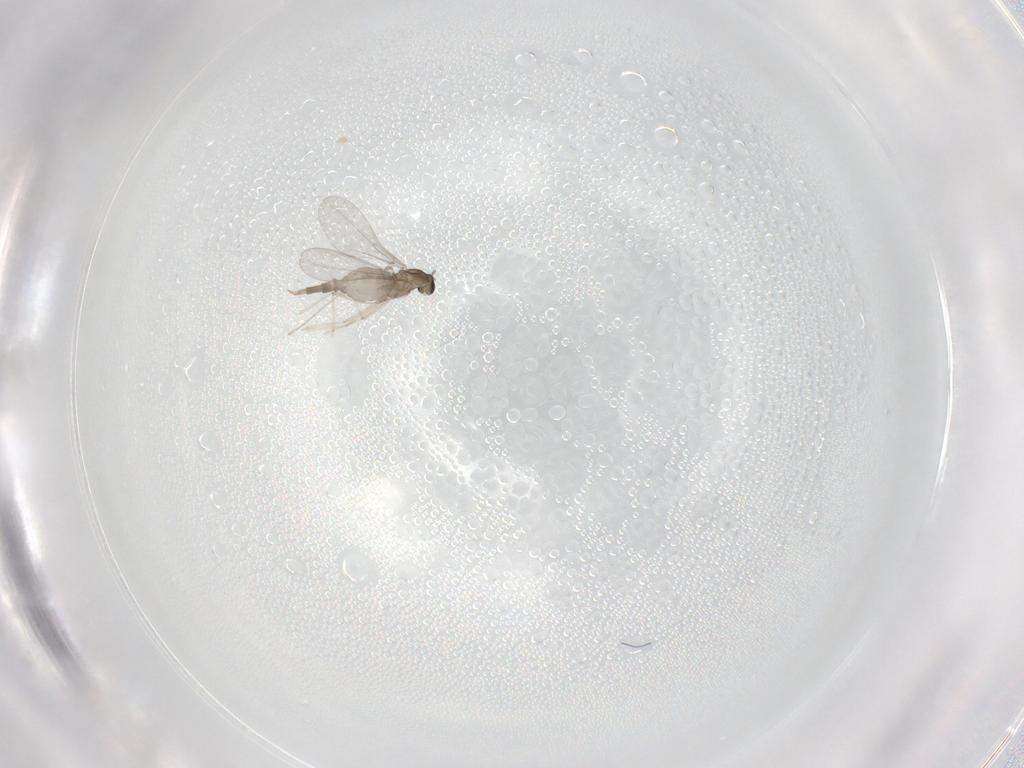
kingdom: Animalia
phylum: Arthropoda
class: Insecta
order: Diptera
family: Cecidomyiidae
